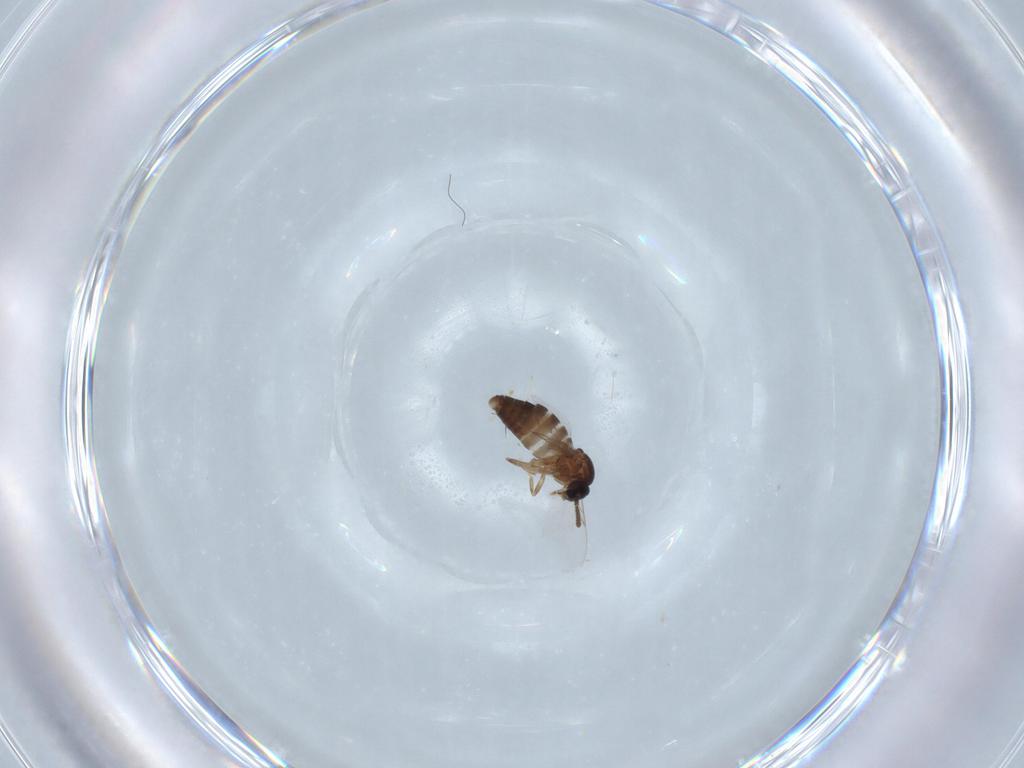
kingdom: Animalia
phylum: Arthropoda
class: Insecta
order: Diptera
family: Scatopsidae
